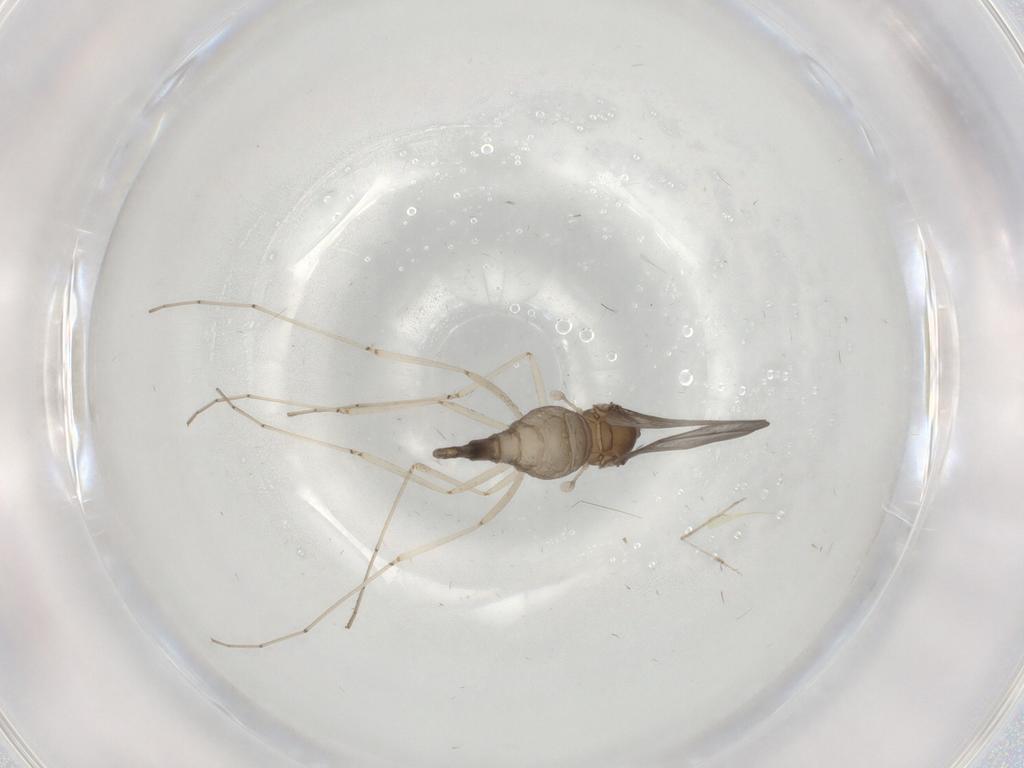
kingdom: Animalia
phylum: Arthropoda
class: Insecta
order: Diptera
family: Cecidomyiidae
